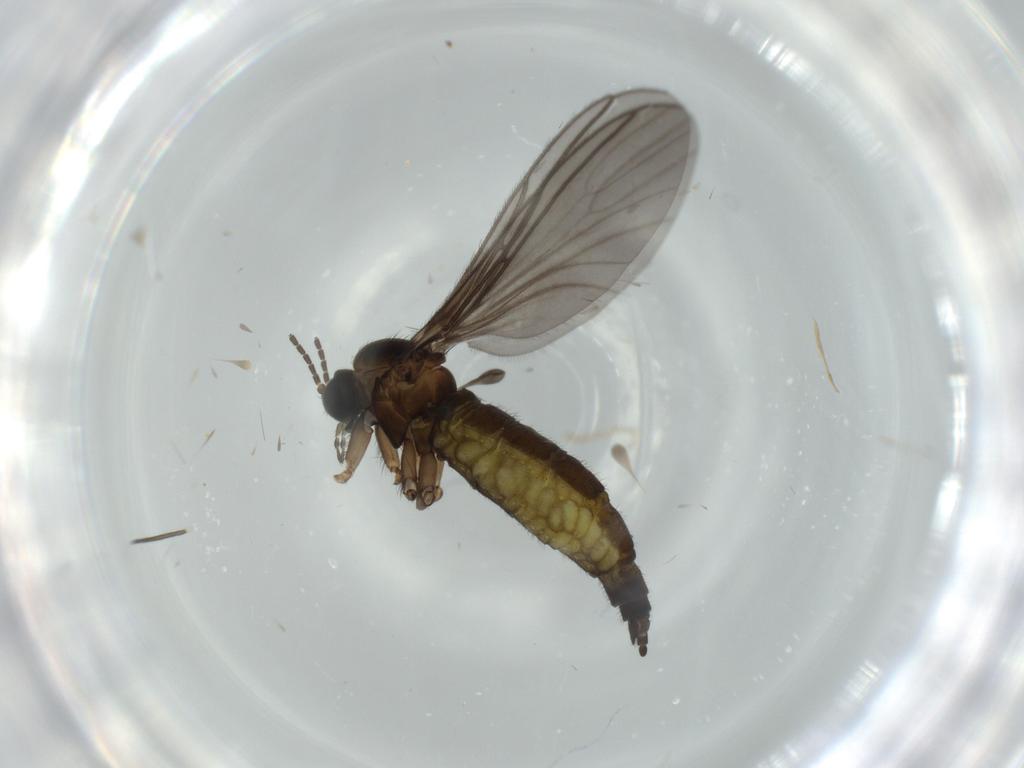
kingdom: Animalia
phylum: Arthropoda
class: Insecta
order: Diptera
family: Sciaridae
